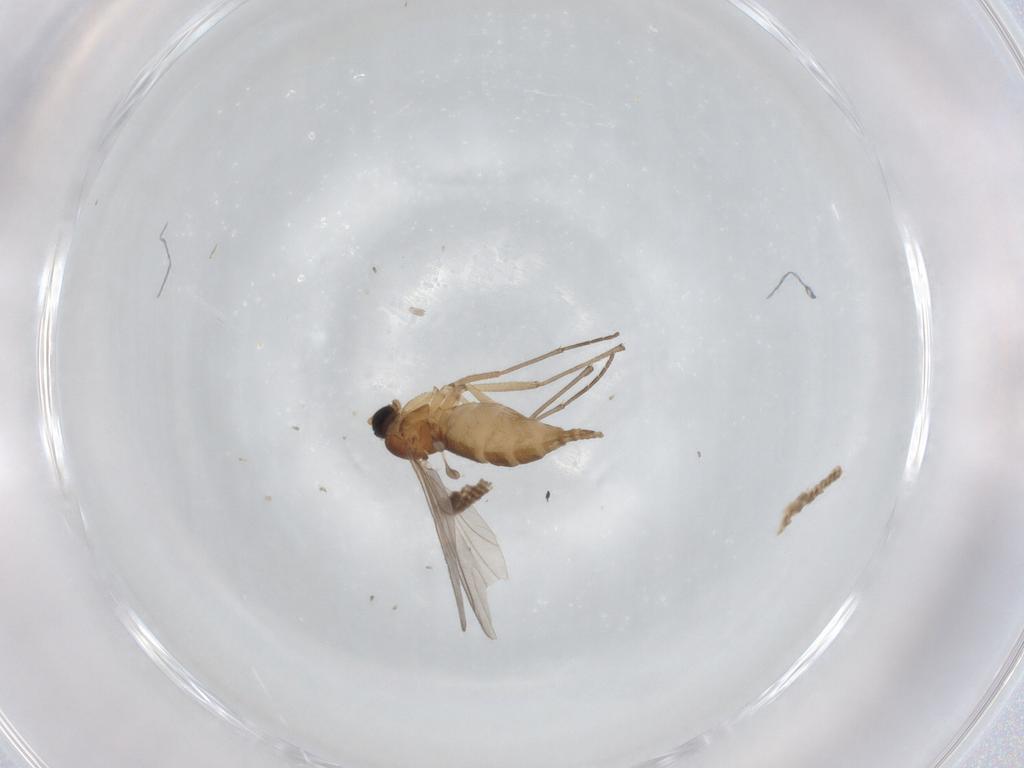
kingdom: Animalia
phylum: Arthropoda
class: Insecta
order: Diptera
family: Sciaridae
